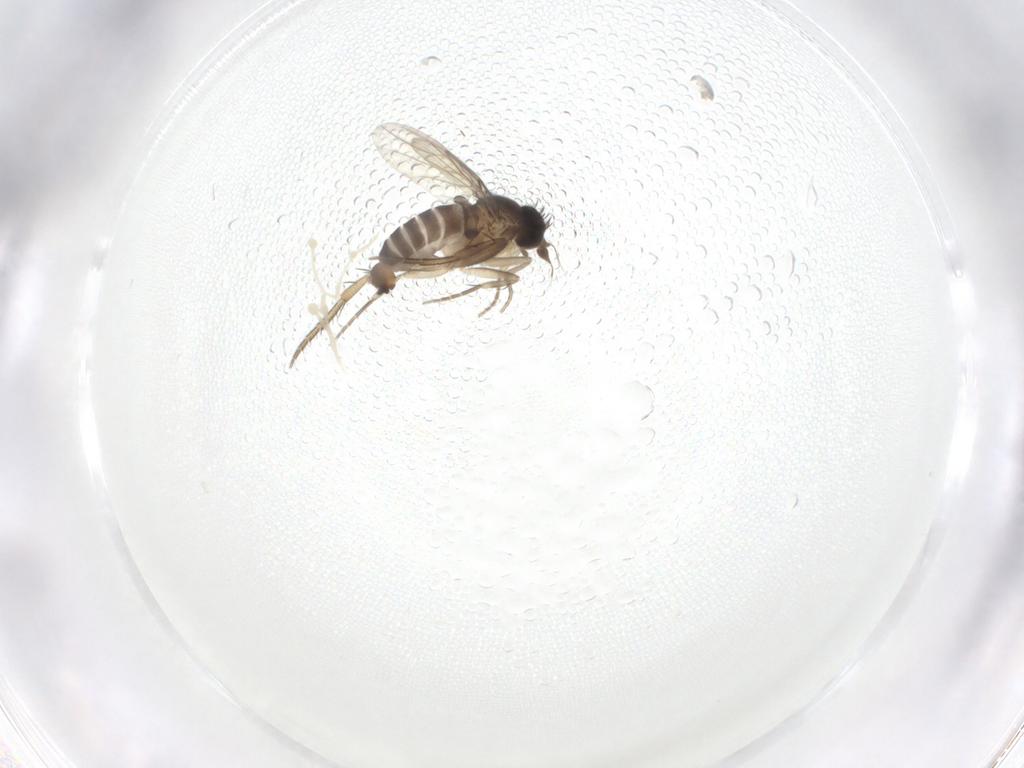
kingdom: Animalia
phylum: Arthropoda
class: Insecta
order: Diptera
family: Phoridae
